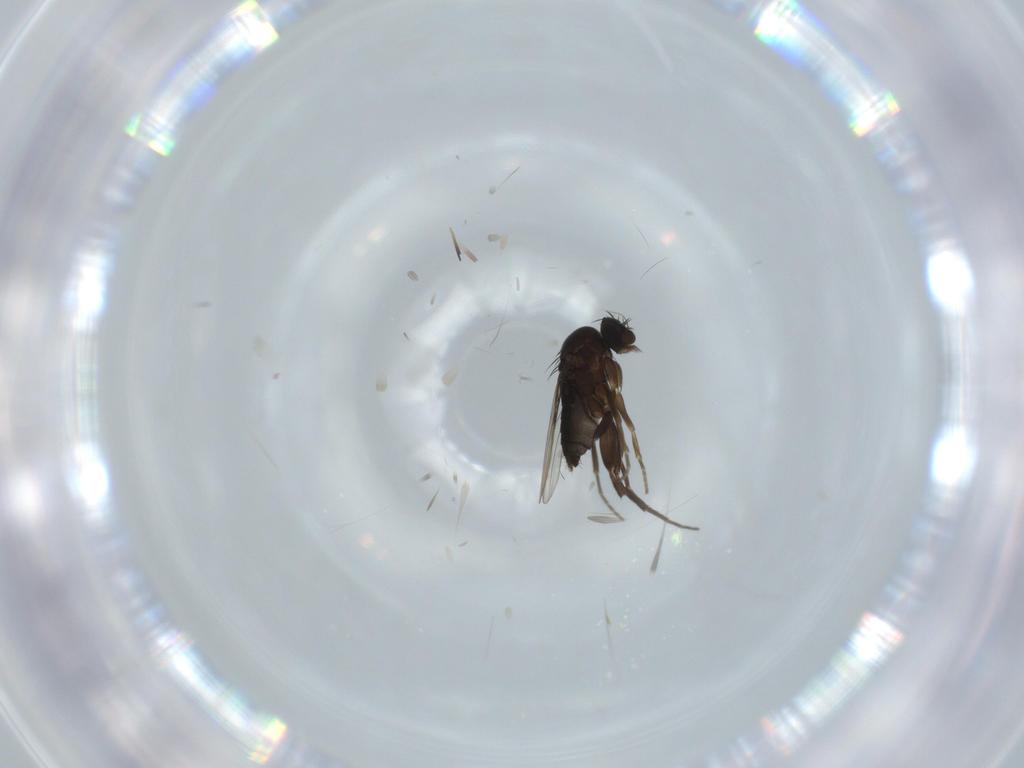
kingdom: Animalia
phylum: Arthropoda
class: Insecta
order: Diptera
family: Phoridae
